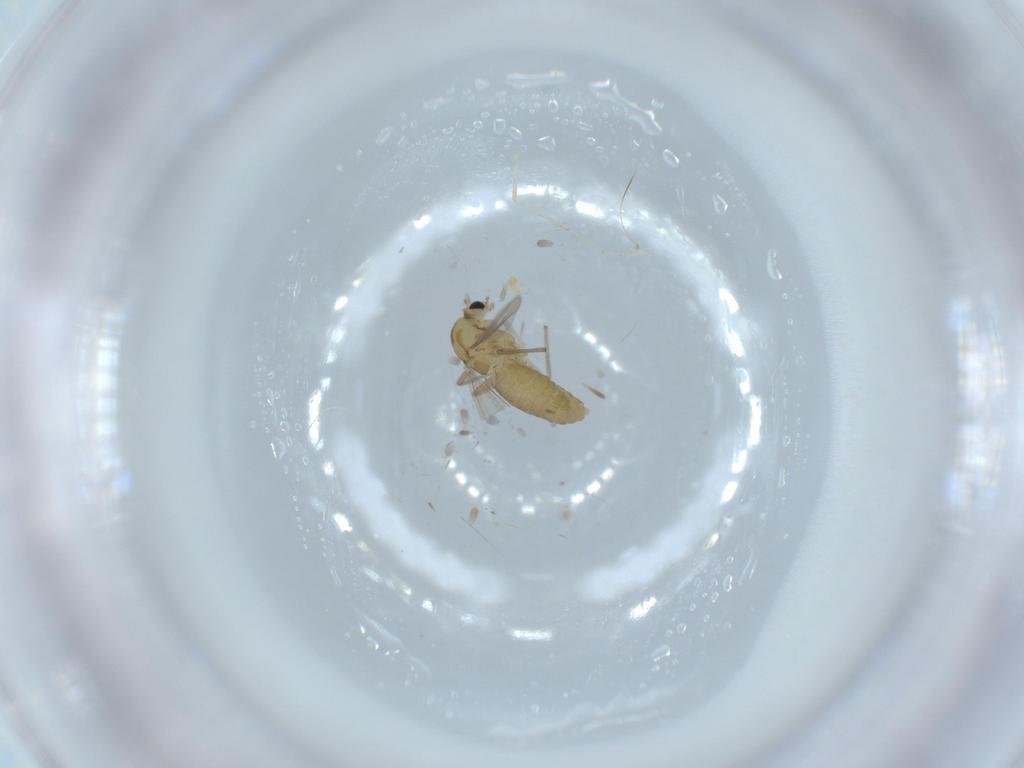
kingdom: Animalia
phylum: Arthropoda
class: Insecta
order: Diptera
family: Chironomidae
